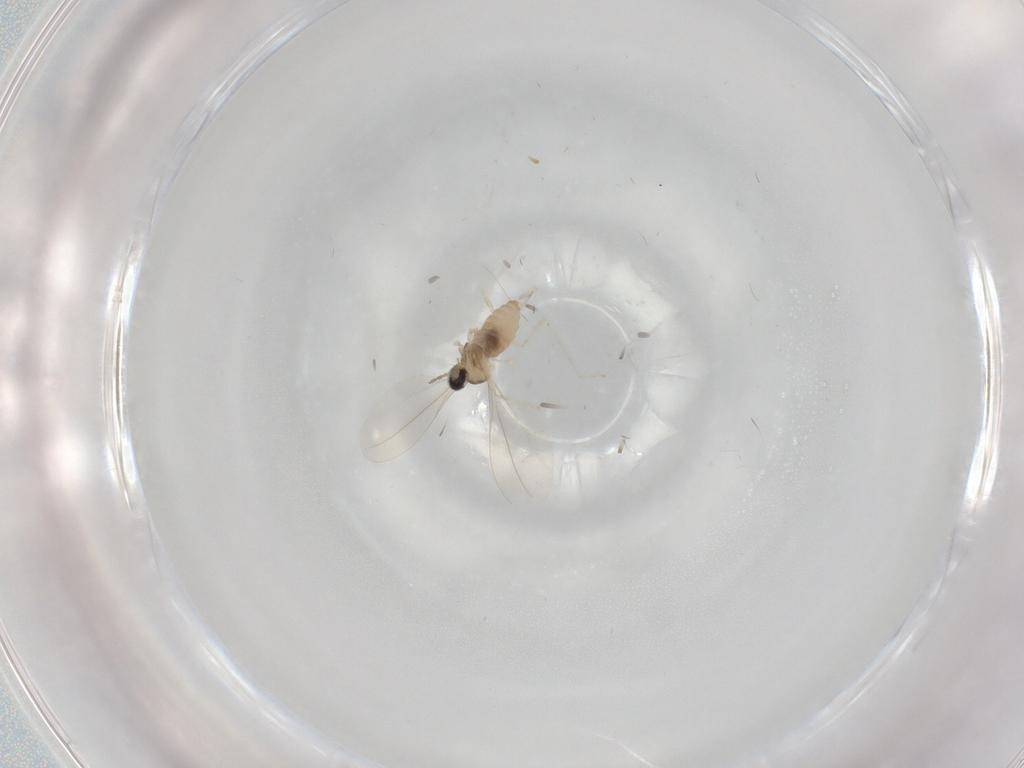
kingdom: Animalia
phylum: Arthropoda
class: Insecta
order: Diptera
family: Cecidomyiidae
